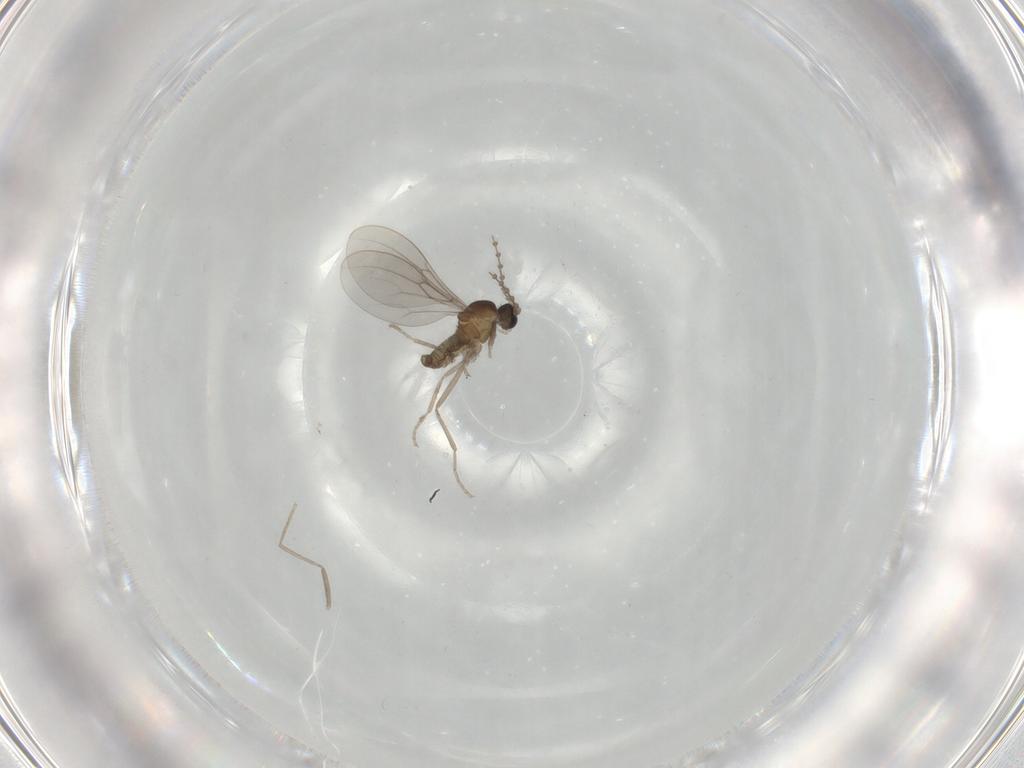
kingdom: Animalia
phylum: Arthropoda
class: Insecta
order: Diptera
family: Cecidomyiidae
